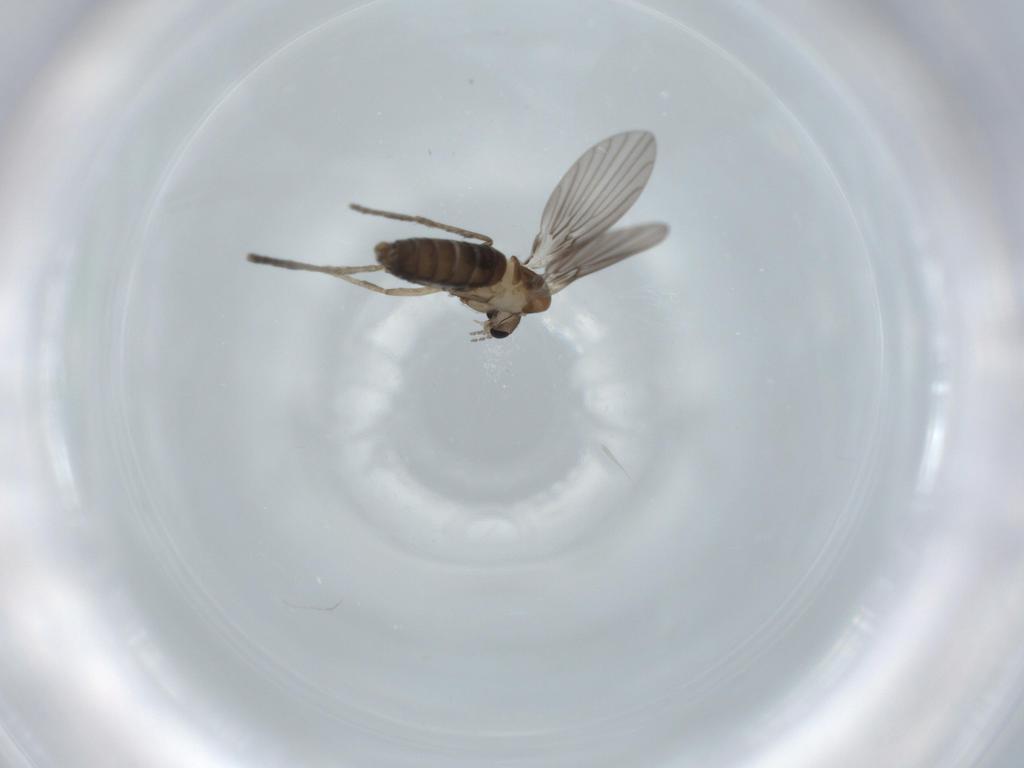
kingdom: Animalia
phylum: Arthropoda
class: Insecta
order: Diptera
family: Psychodidae
